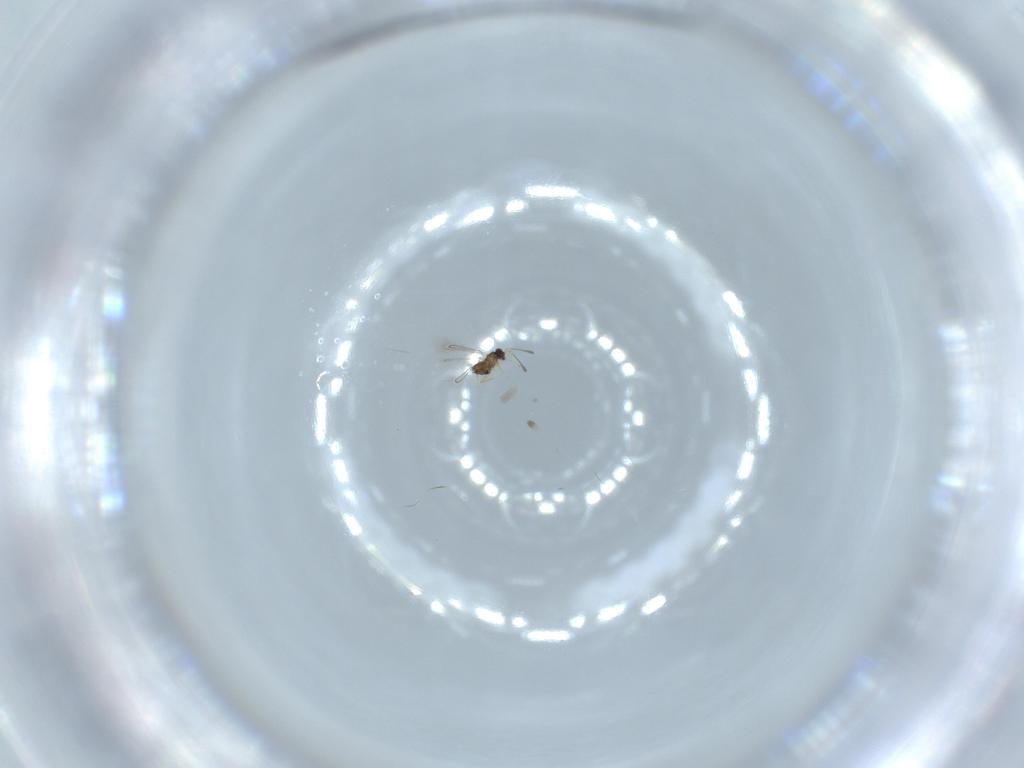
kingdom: Animalia
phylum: Arthropoda
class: Insecta
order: Hymenoptera
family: Mymaridae
